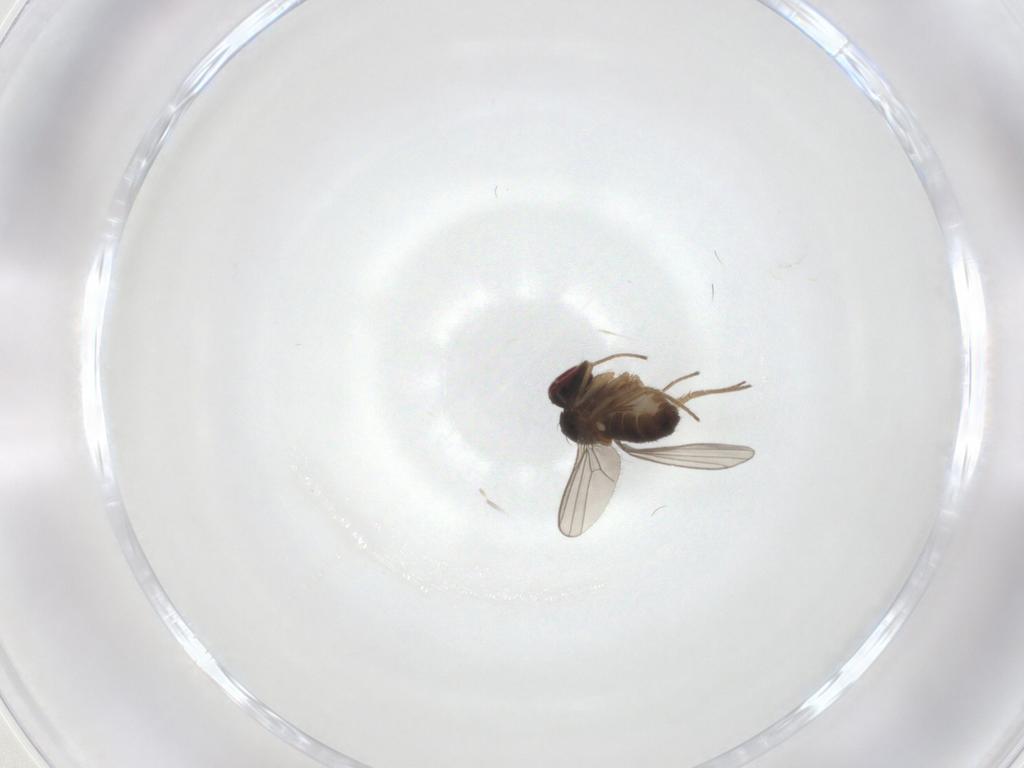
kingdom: Animalia
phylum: Arthropoda
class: Insecta
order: Diptera
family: Dolichopodidae
